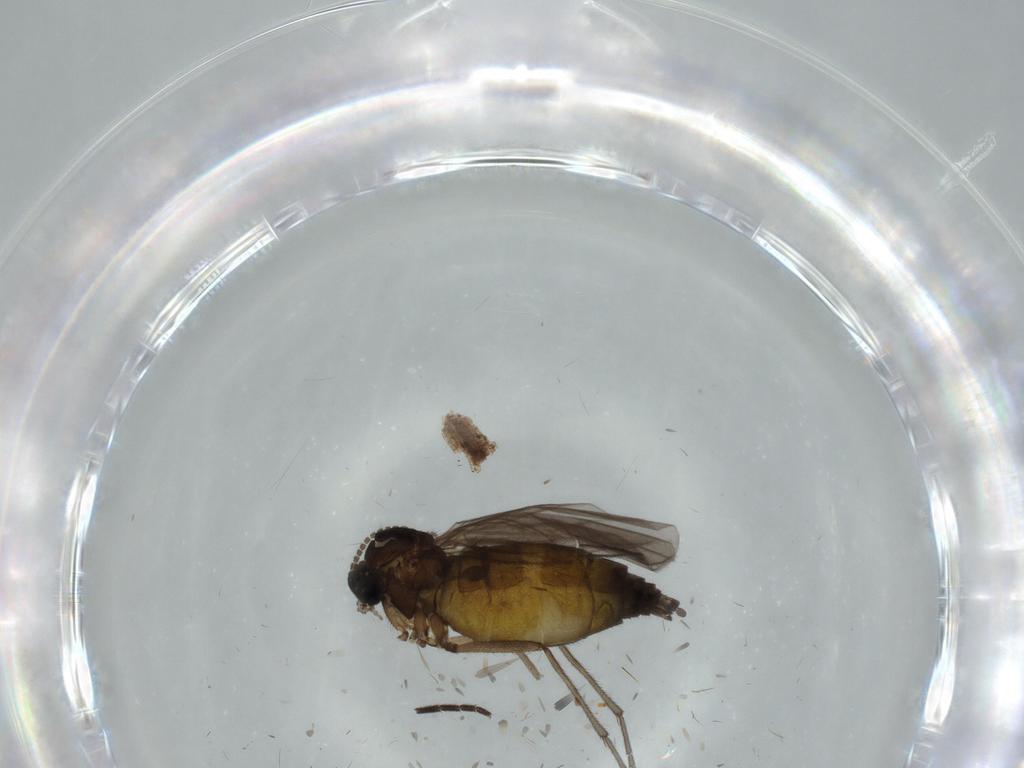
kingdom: Animalia
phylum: Arthropoda
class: Insecta
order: Diptera
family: Sciaridae
